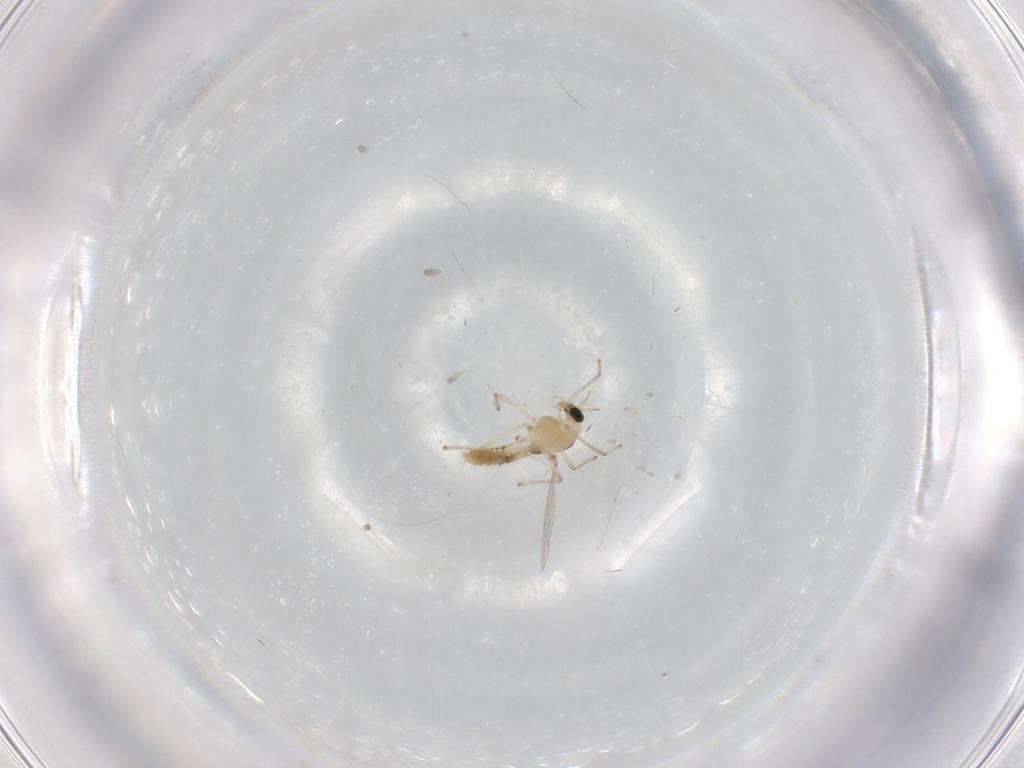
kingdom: Animalia
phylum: Arthropoda
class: Insecta
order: Diptera
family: Chironomidae
